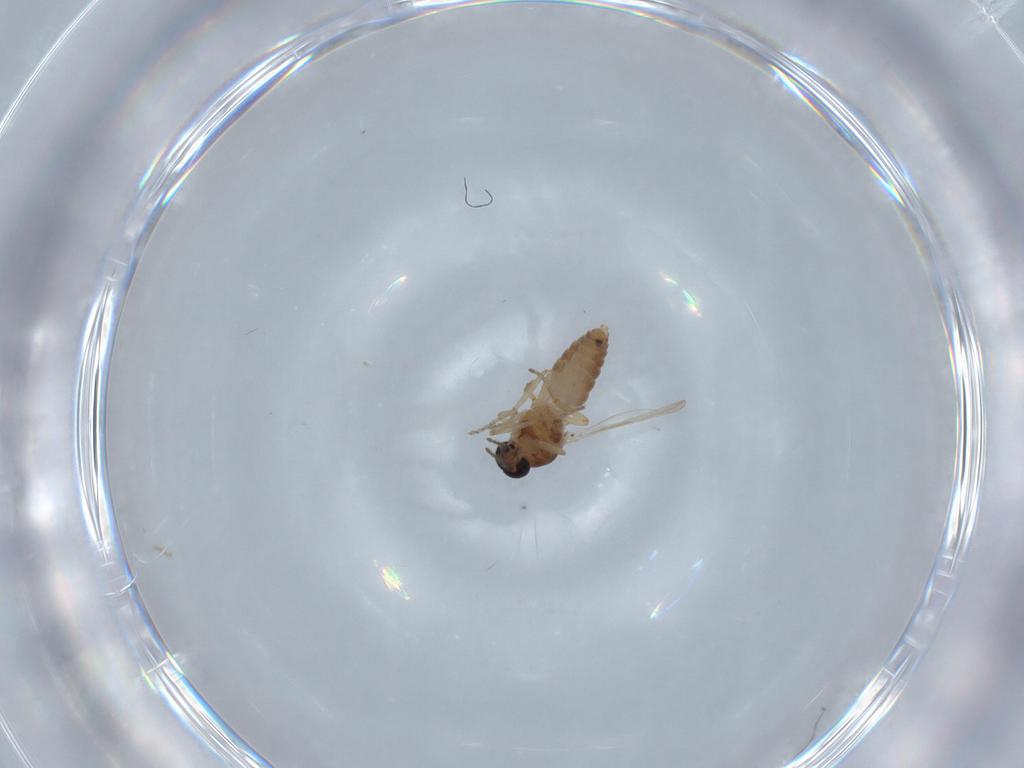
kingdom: Animalia
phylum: Arthropoda
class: Insecta
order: Diptera
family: Ceratopogonidae
